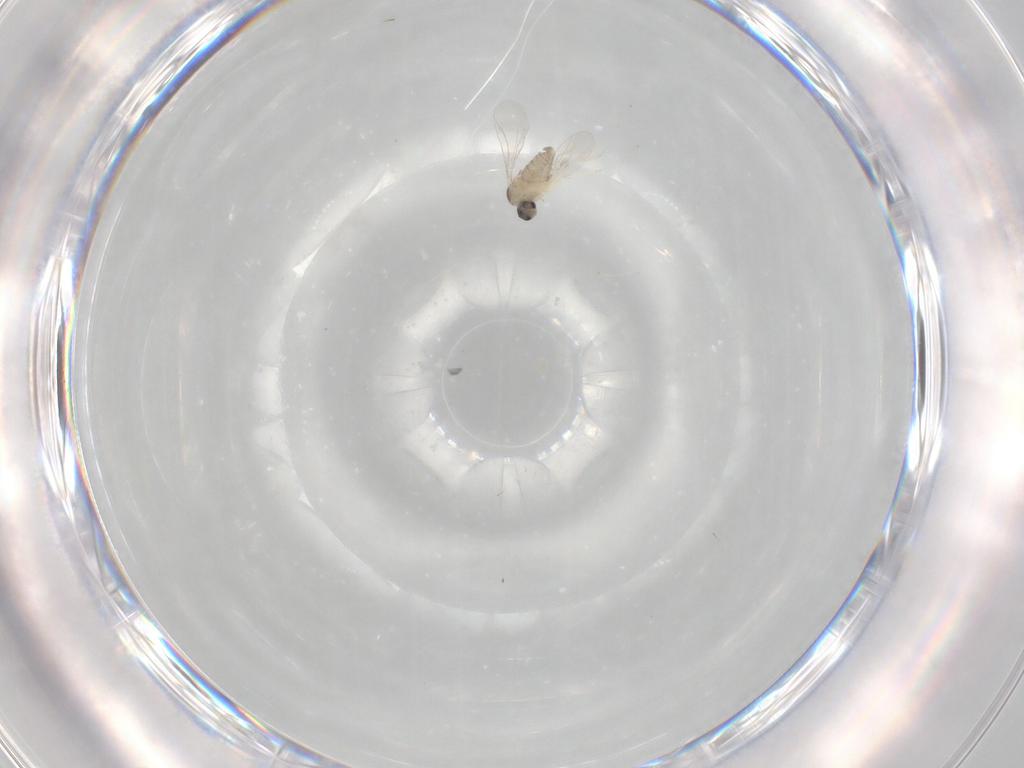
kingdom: Animalia
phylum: Arthropoda
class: Insecta
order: Diptera
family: Cecidomyiidae
